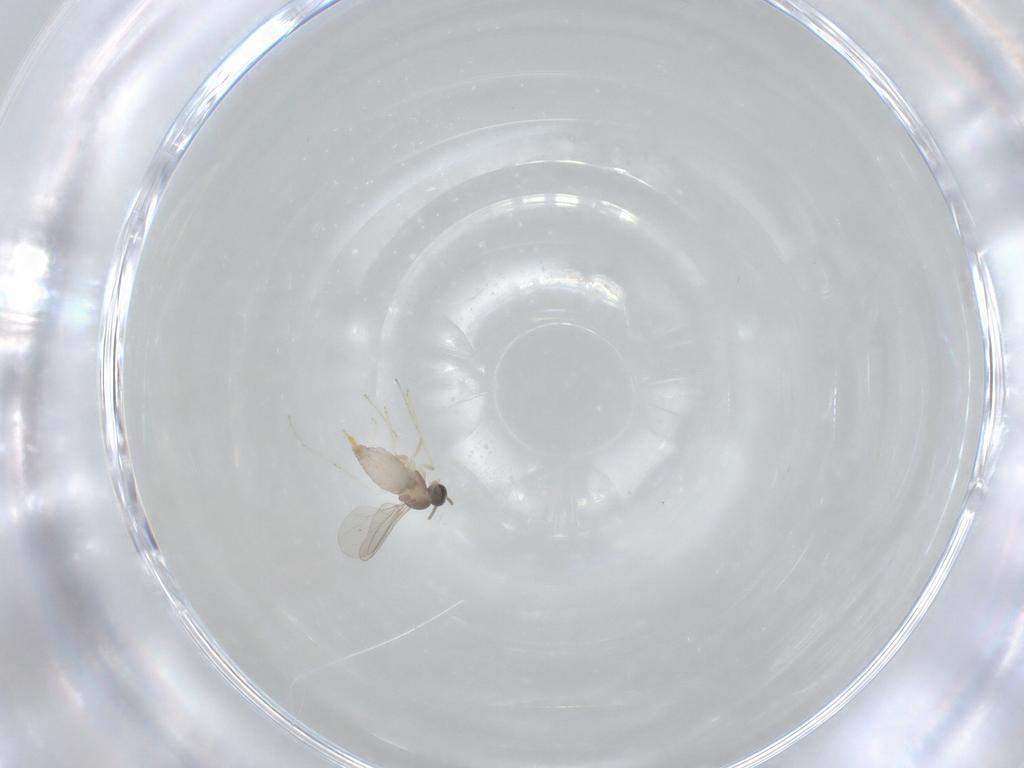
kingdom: Animalia
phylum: Arthropoda
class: Insecta
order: Diptera
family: Cecidomyiidae
